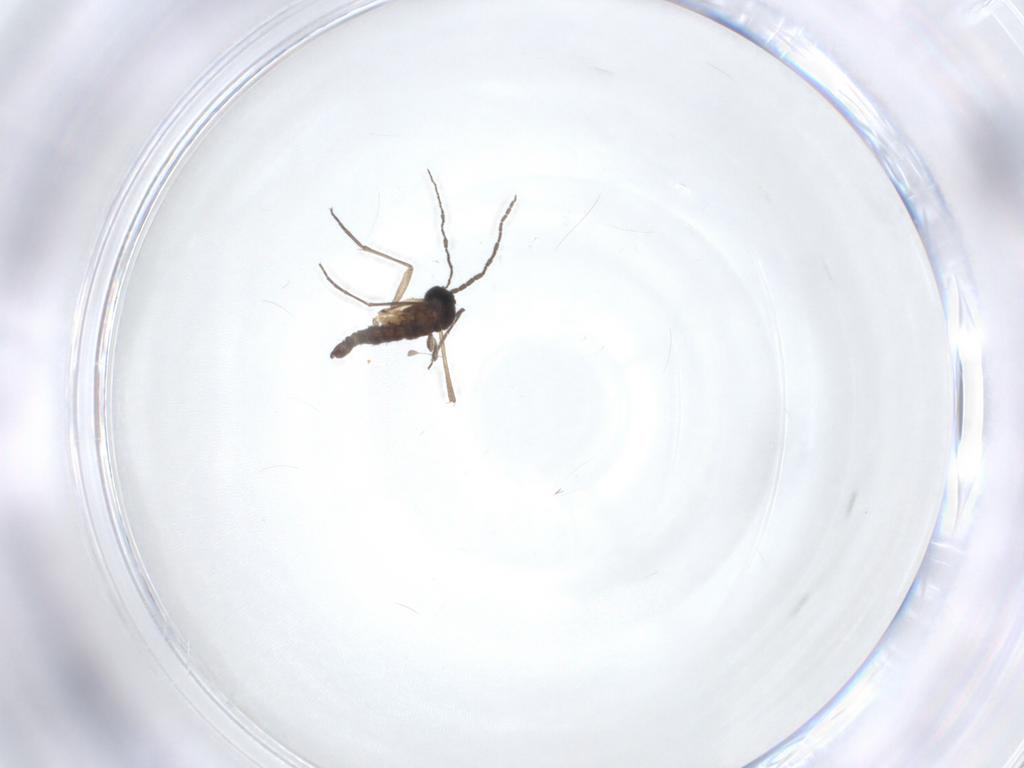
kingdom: Animalia
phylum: Arthropoda
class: Insecta
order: Diptera
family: Sciaridae
